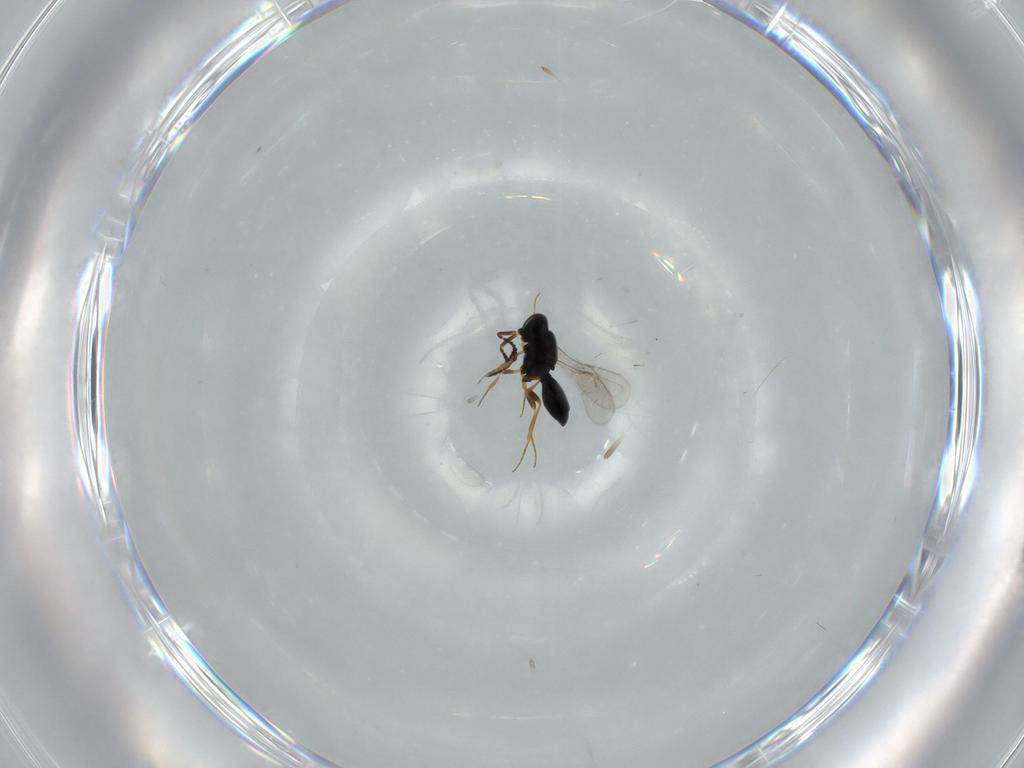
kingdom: Animalia
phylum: Arthropoda
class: Insecta
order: Hymenoptera
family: Scelionidae
